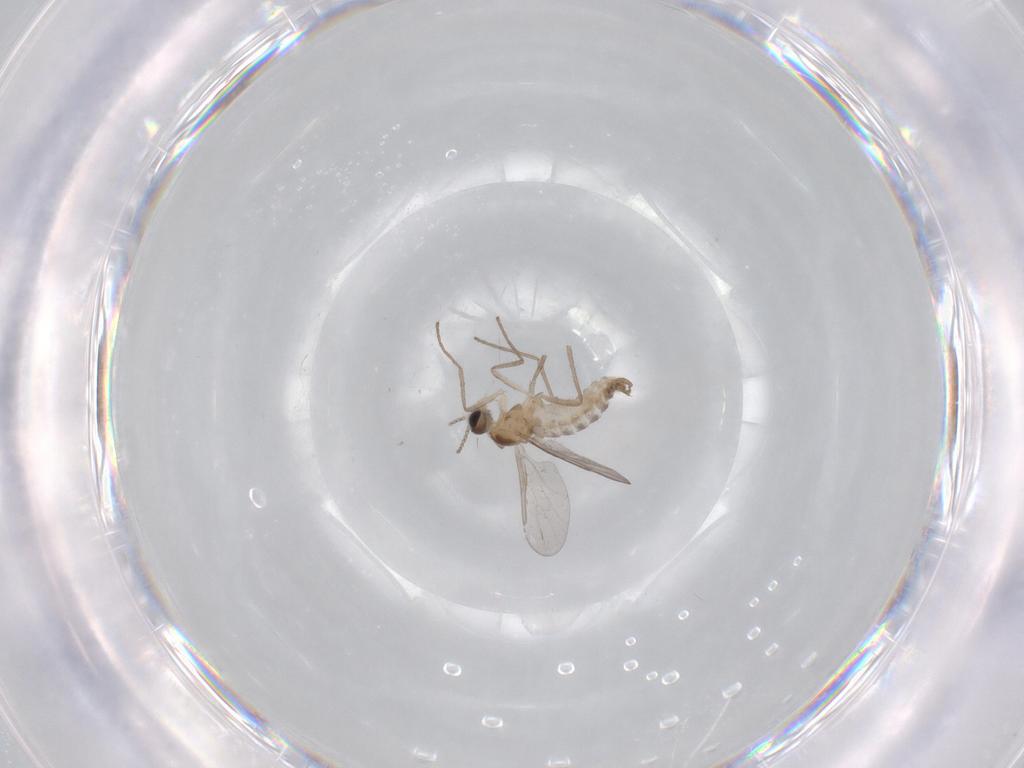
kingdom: Animalia
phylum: Arthropoda
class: Insecta
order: Diptera
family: Cecidomyiidae
